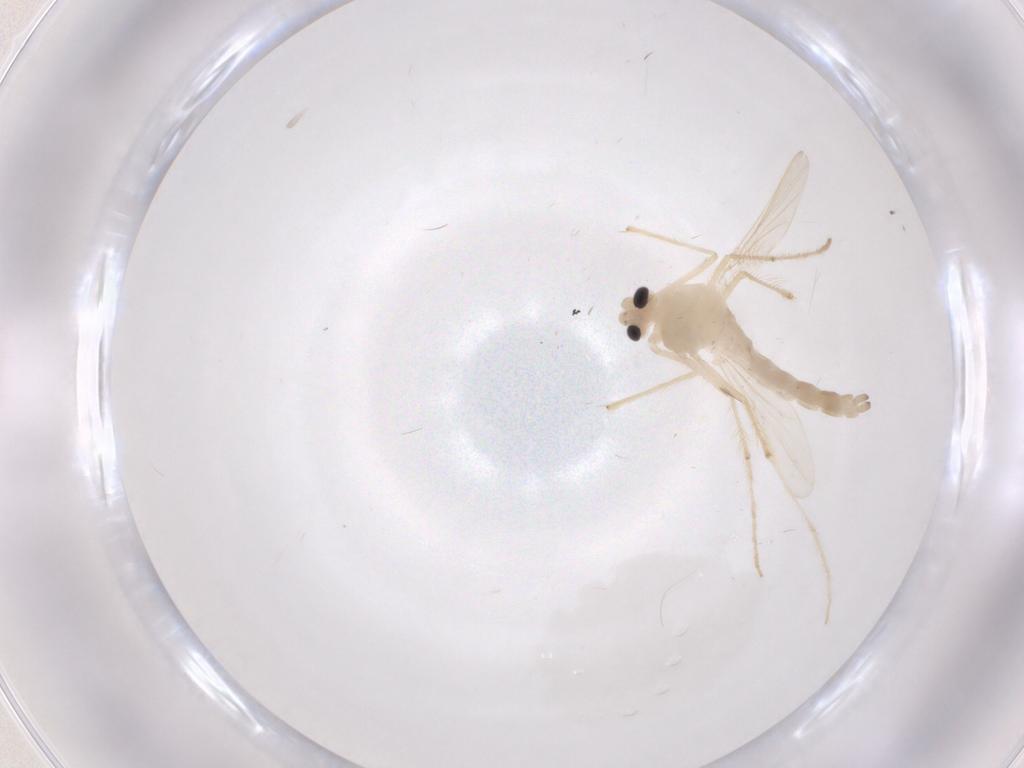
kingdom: Animalia
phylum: Arthropoda
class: Insecta
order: Diptera
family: Chironomidae
